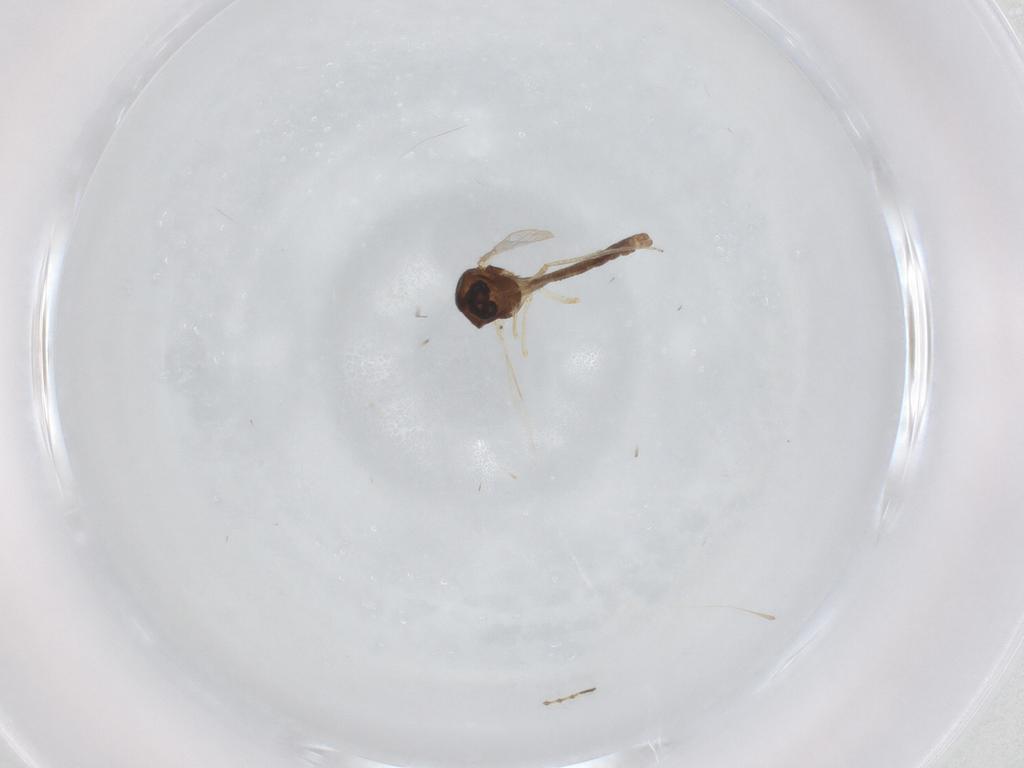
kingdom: Animalia
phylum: Arthropoda
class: Insecta
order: Diptera
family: Ceratopogonidae
